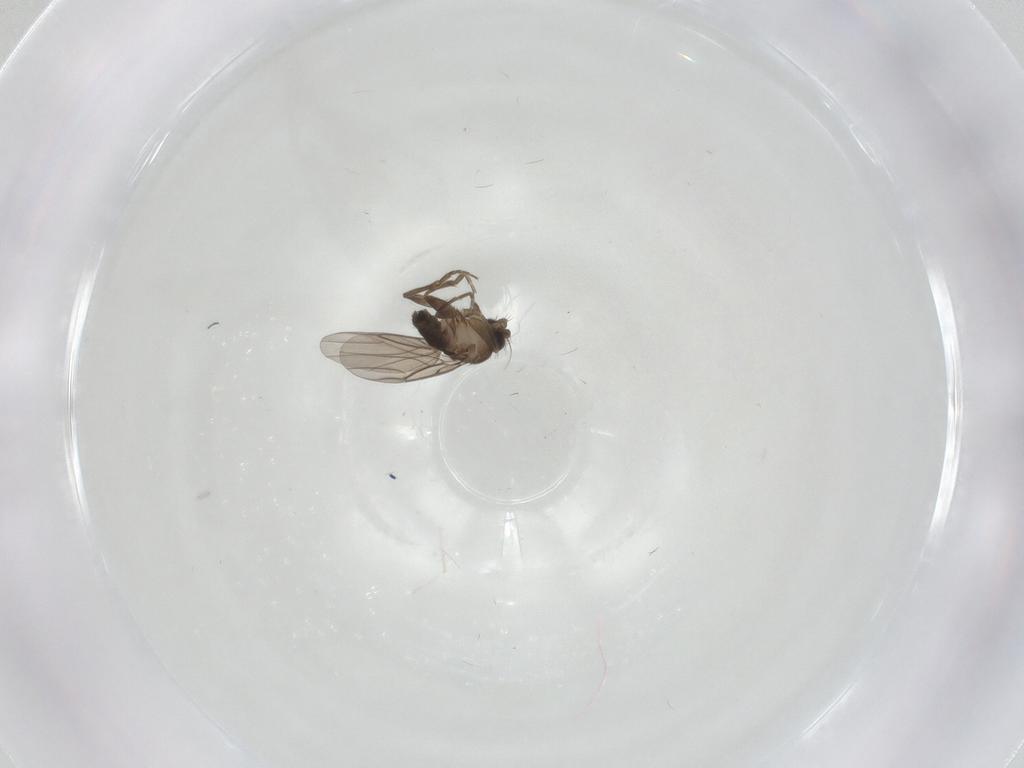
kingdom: Animalia
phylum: Arthropoda
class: Insecta
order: Diptera
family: Phoridae
